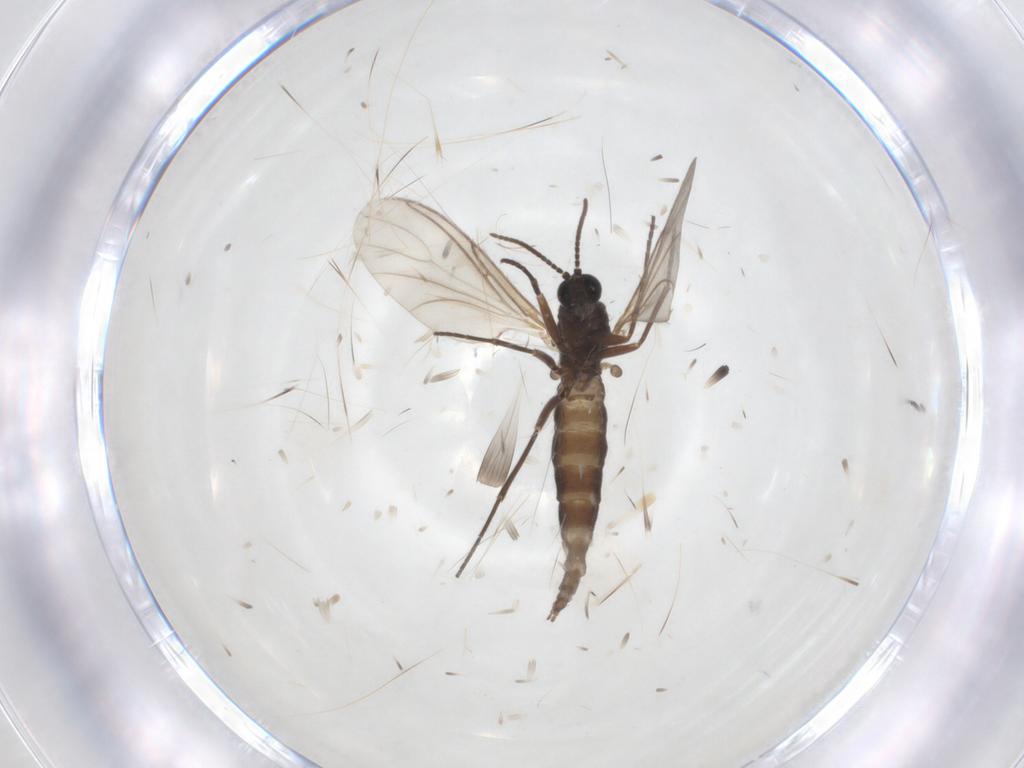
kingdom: Animalia
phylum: Arthropoda
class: Insecta
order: Diptera
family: Sciaridae
